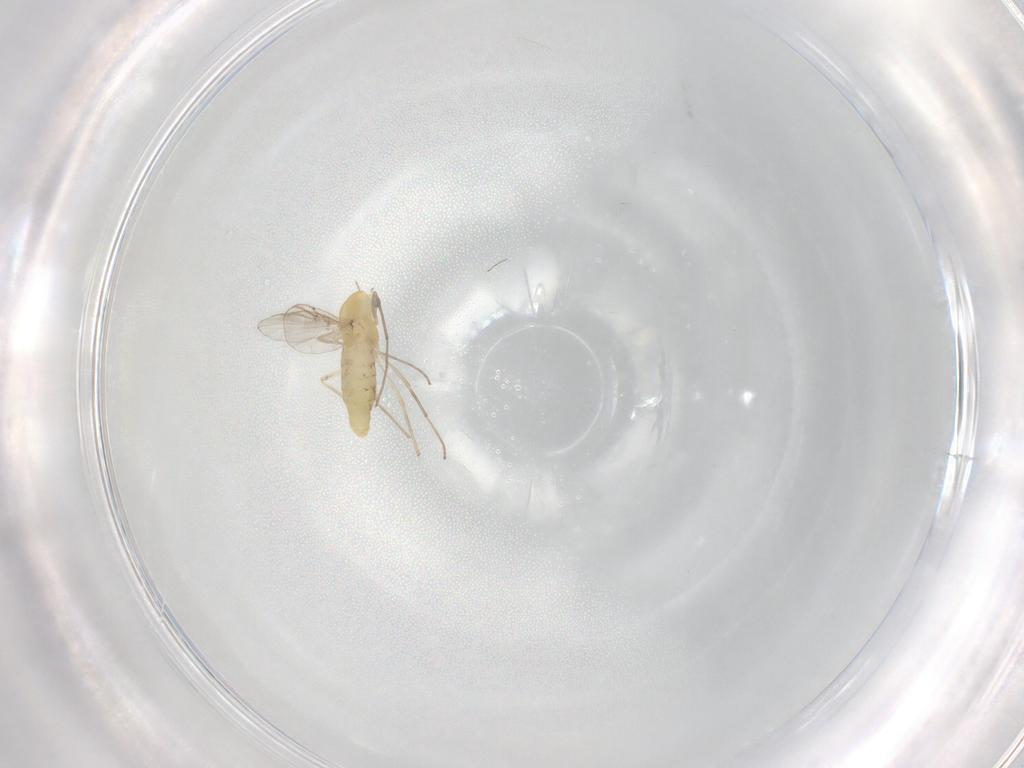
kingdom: Animalia
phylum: Arthropoda
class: Insecta
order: Diptera
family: Chironomidae
